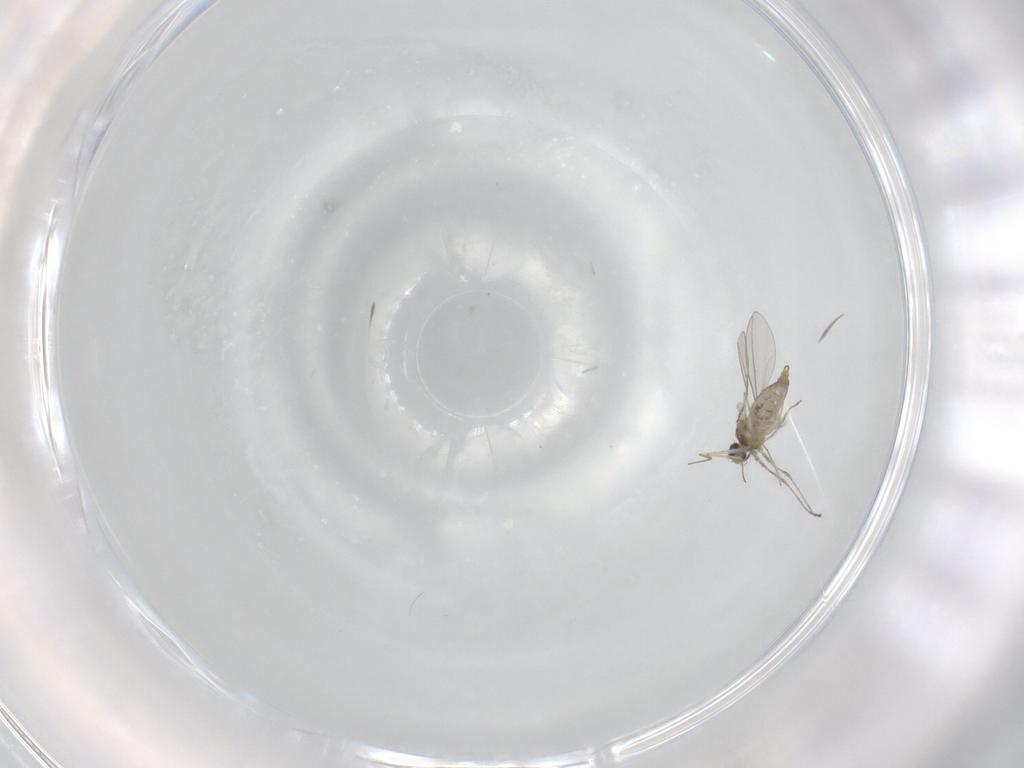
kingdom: Animalia
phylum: Arthropoda
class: Insecta
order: Diptera
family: Cecidomyiidae
